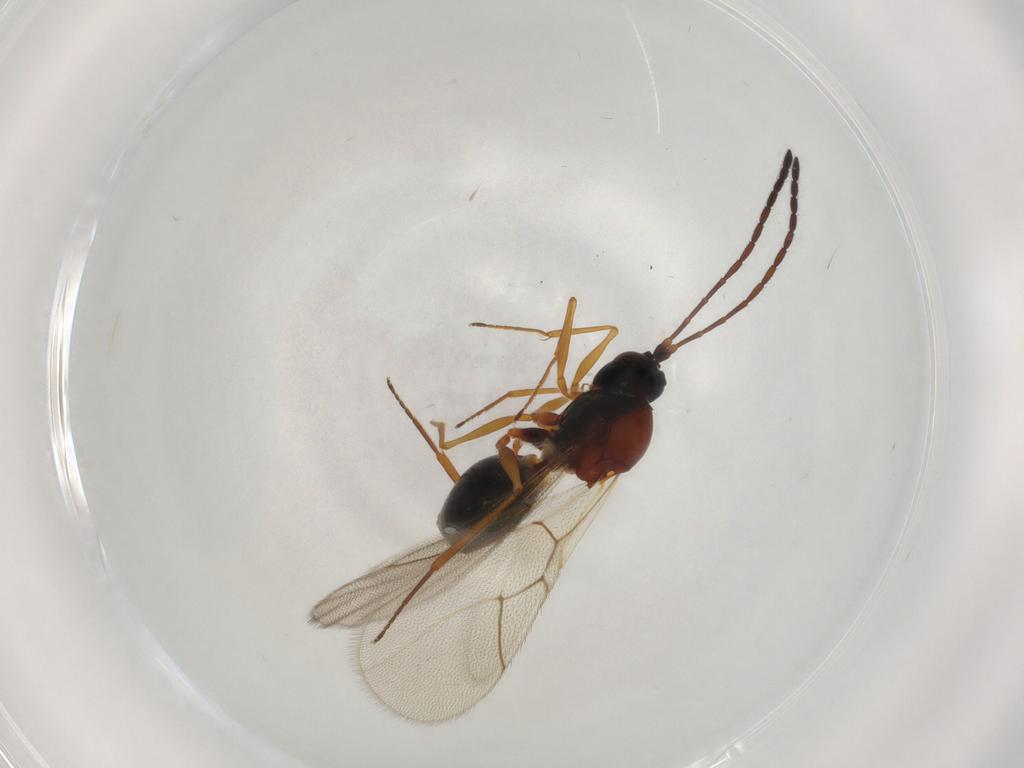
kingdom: Animalia
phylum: Arthropoda
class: Insecta
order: Hymenoptera
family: Figitidae
